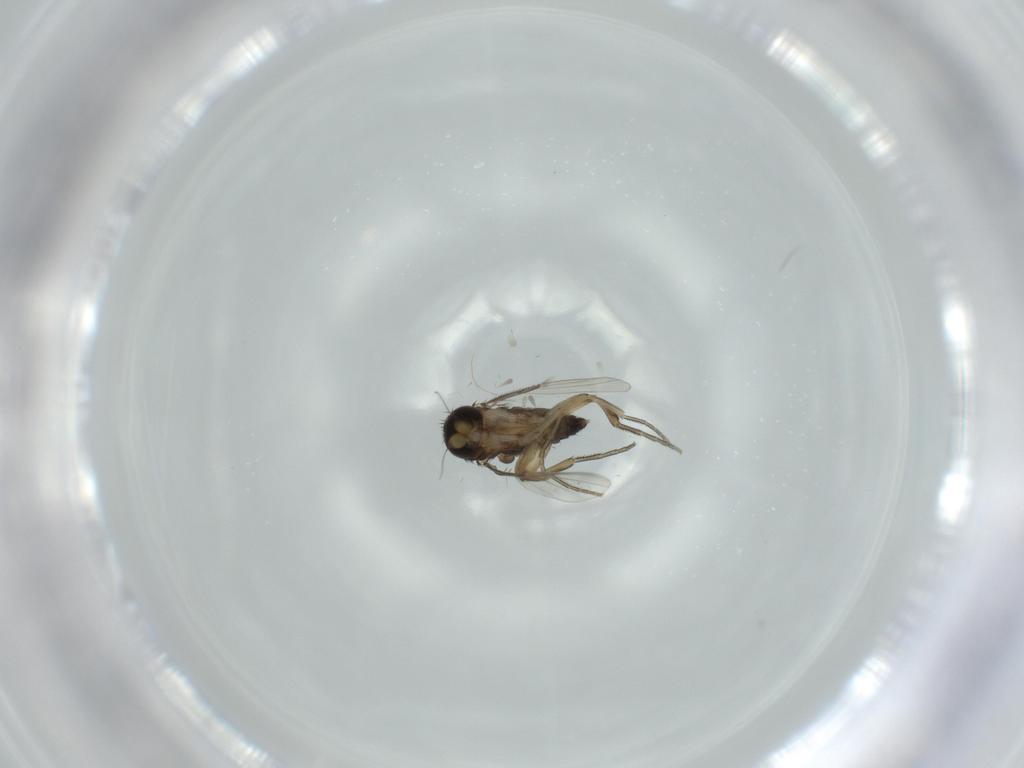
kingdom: Animalia
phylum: Arthropoda
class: Insecta
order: Diptera
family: Phoridae
